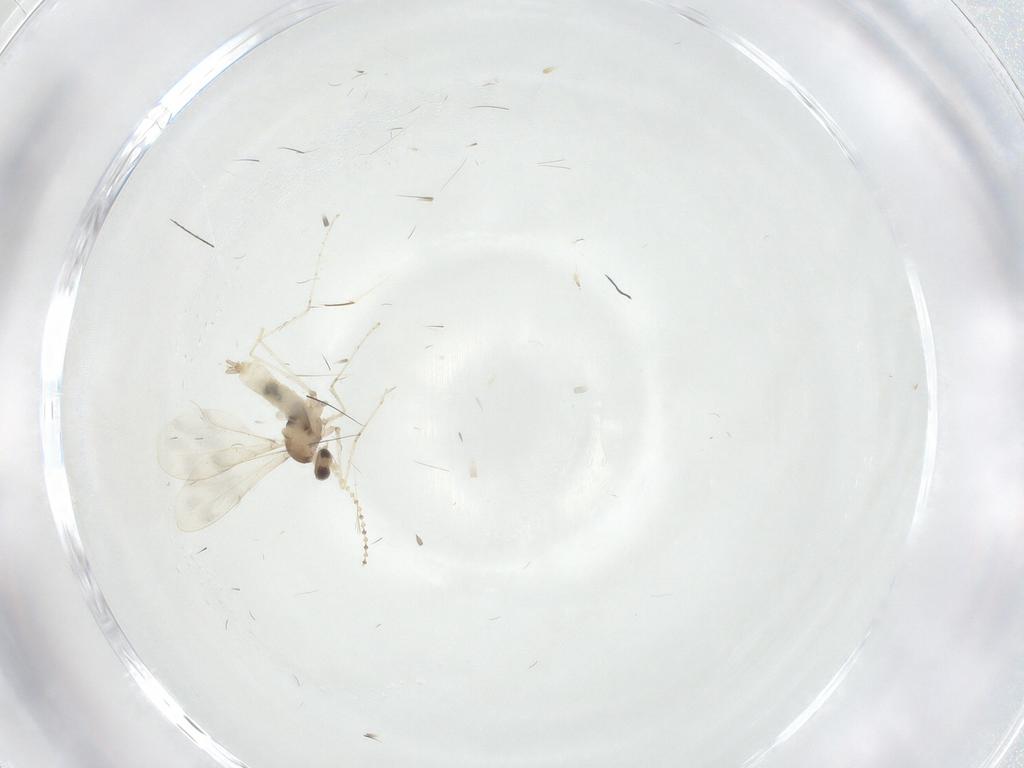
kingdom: Animalia
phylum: Arthropoda
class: Insecta
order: Diptera
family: Chironomidae
